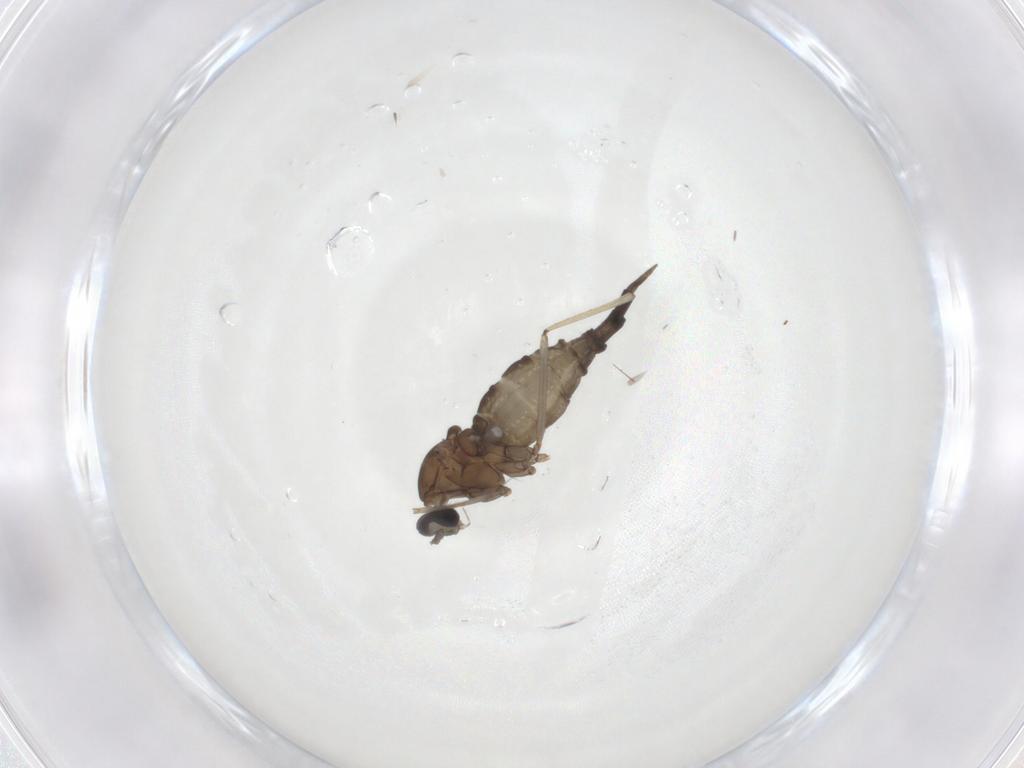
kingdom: Animalia
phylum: Arthropoda
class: Insecta
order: Diptera
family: Cecidomyiidae
